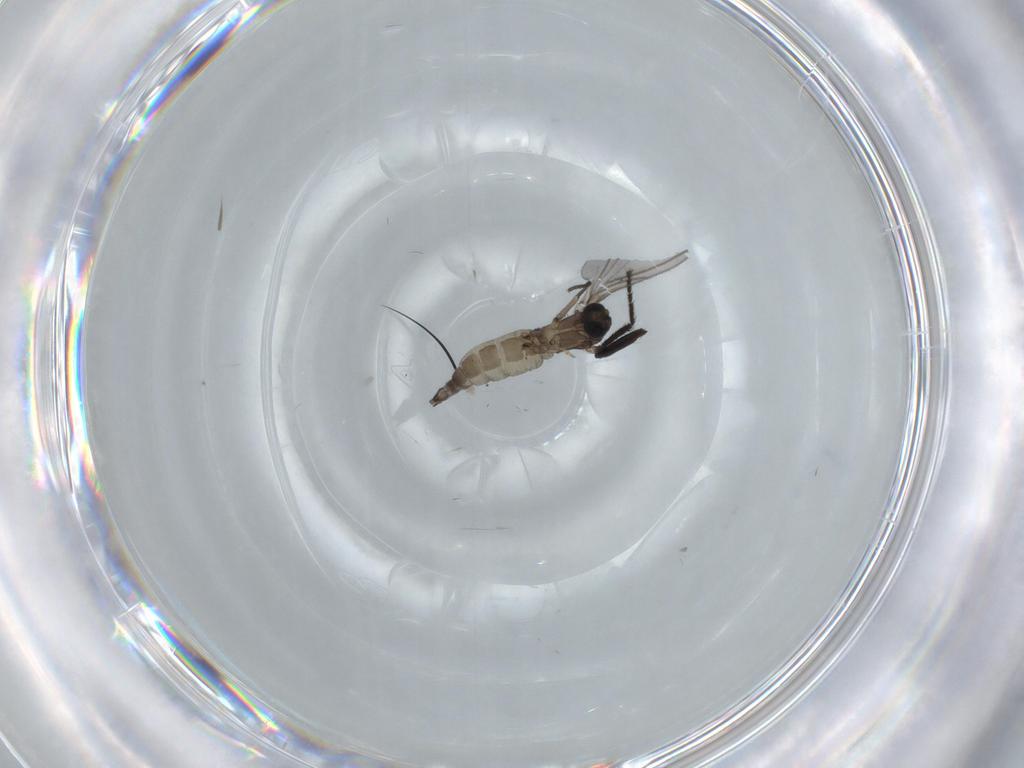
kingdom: Animalia
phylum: Arthropoda
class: Insecta
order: Diptera
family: Sciaridae
